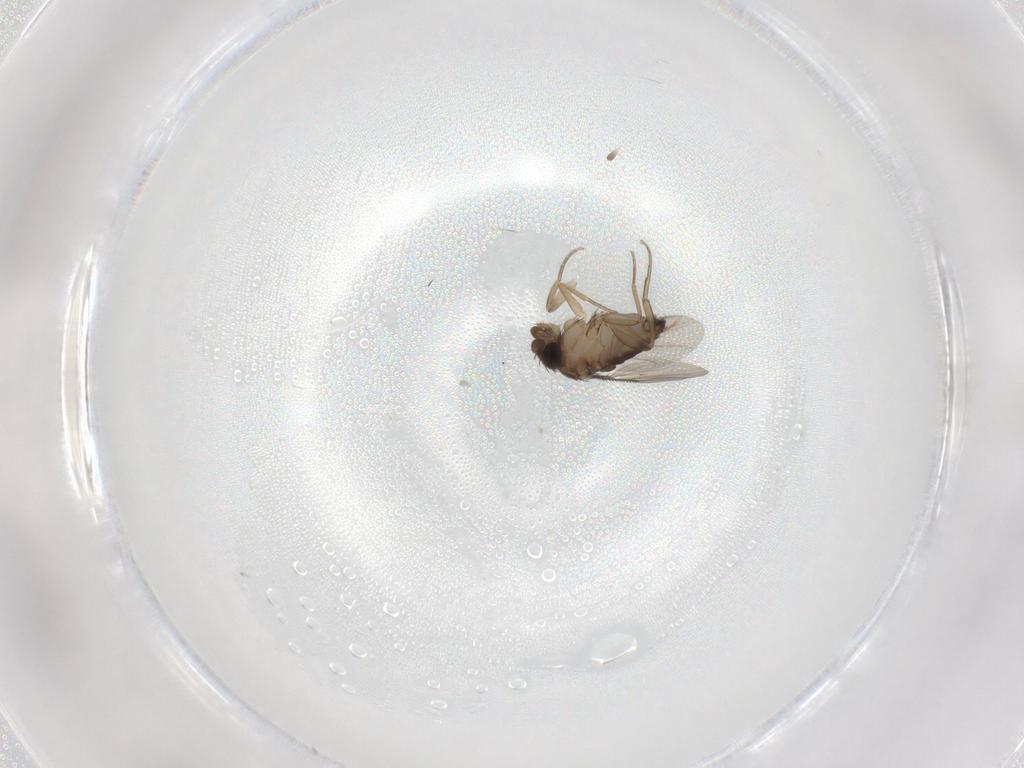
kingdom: Animalia
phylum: Arthropoda
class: Insecta
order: Diptera
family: Ceratopogonidae
